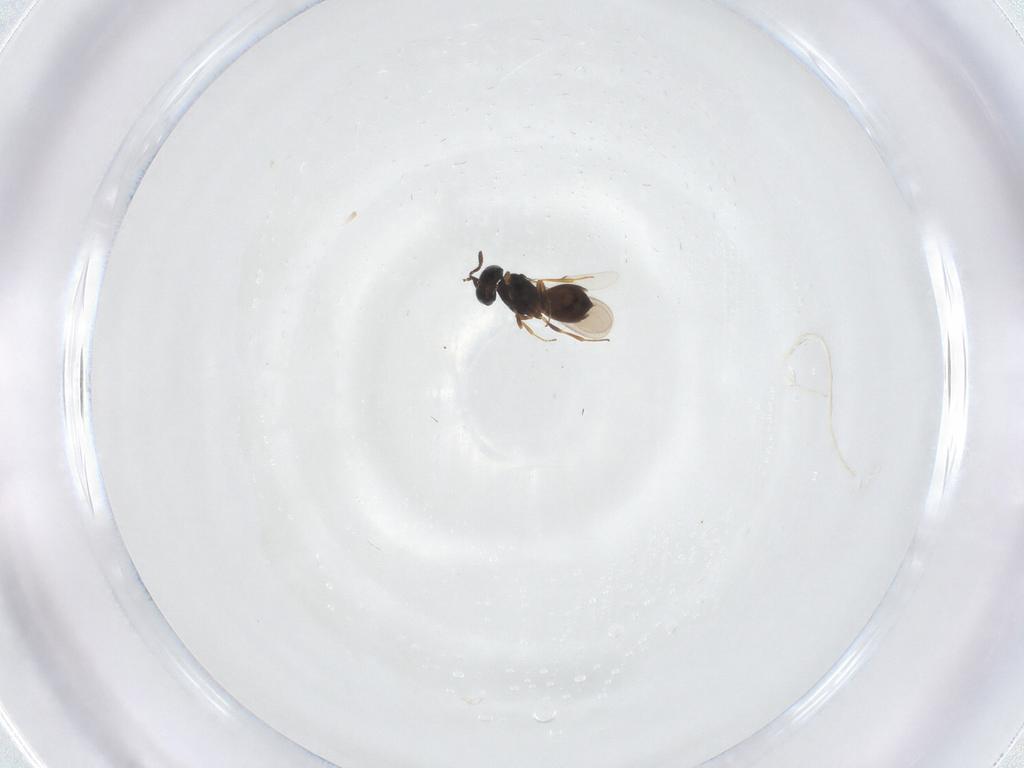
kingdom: Animalia
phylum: Arthropoda
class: Insecta
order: Hymenoptera
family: Scelionidae
